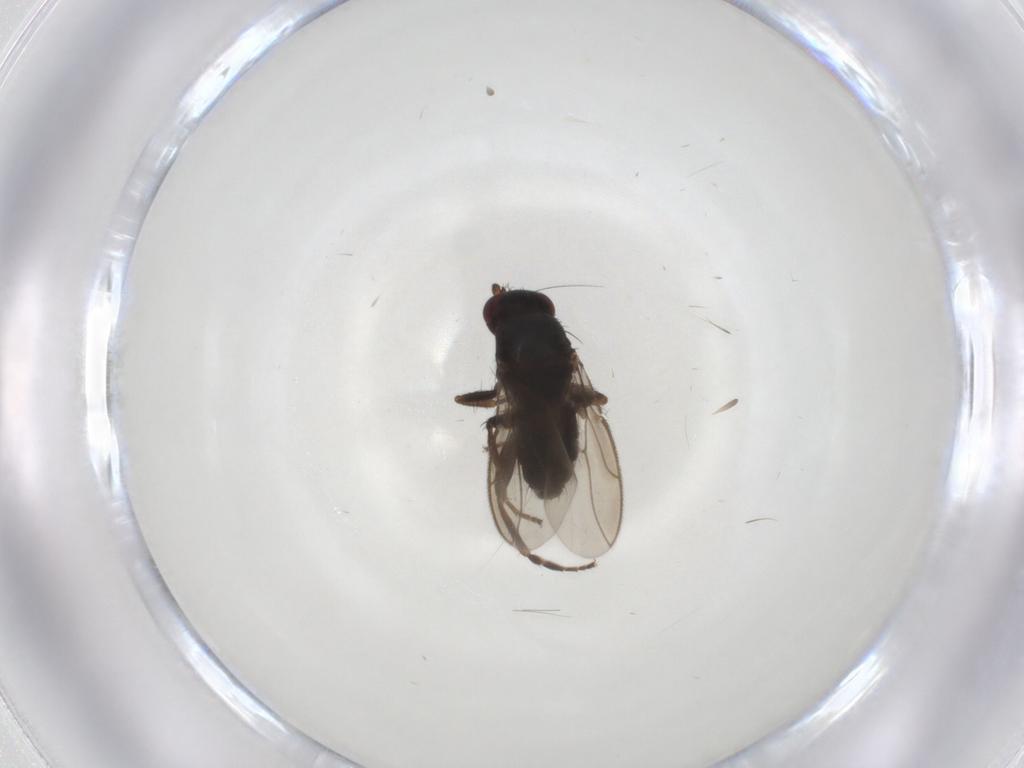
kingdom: Animalia
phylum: Arthropoda
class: Insecta
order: Diptera
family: Sphaeroceridae
